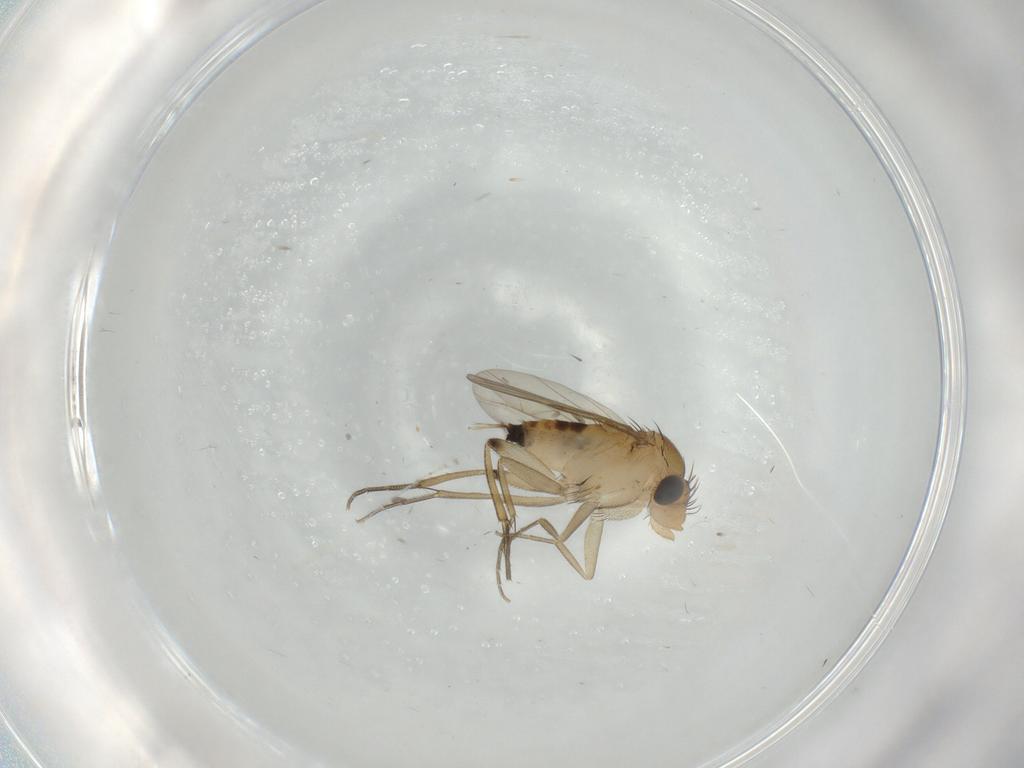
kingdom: Animalia
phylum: Arthropoda
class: Insecta
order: Diptera
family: Phoridae
